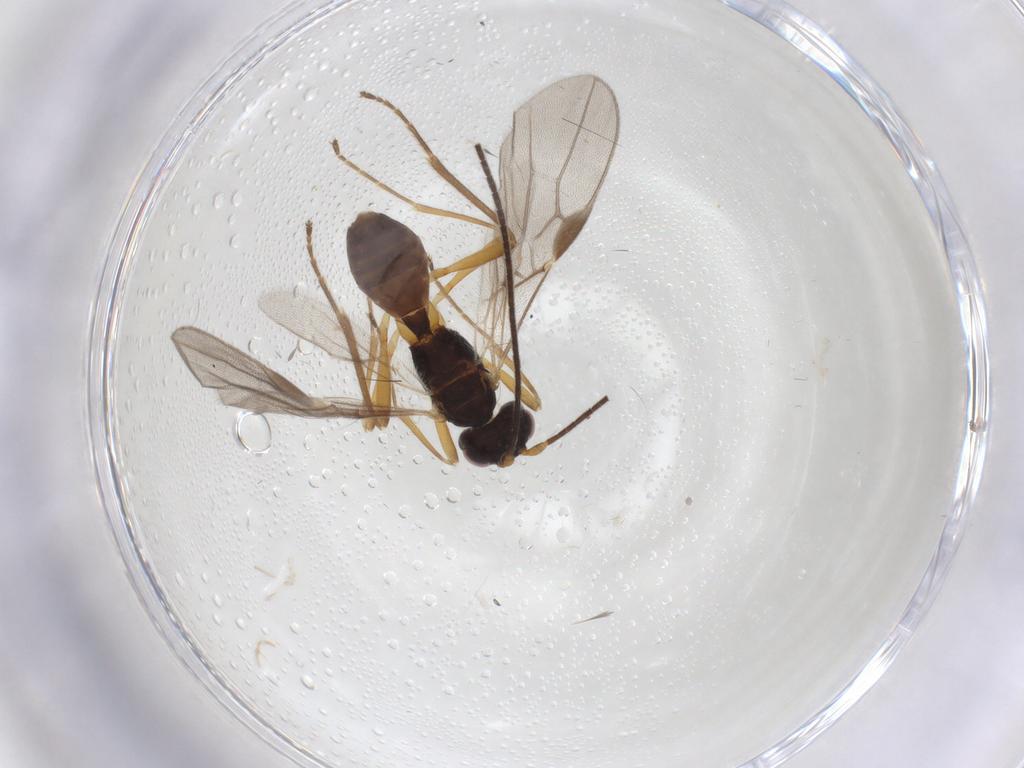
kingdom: Animalia
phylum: Arthropoda
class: Insecta
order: Hymenoptera
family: Braconidae
